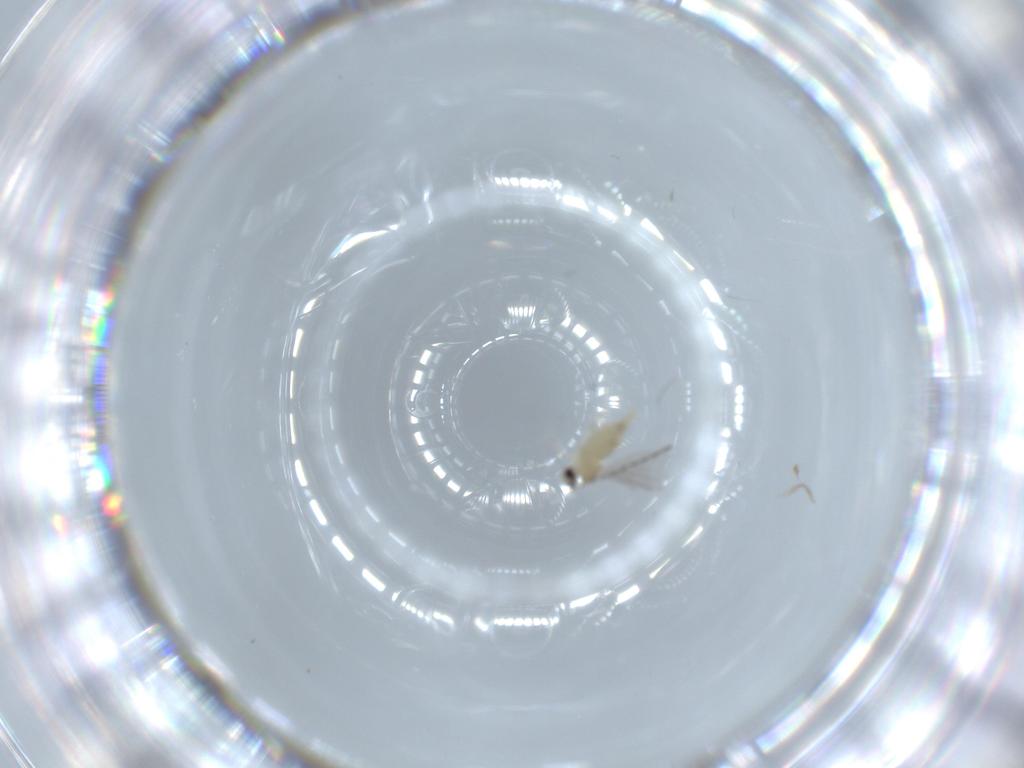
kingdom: Animalia
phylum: Arthropoda
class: Insecta
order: Diptera
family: Cecidomyiidae
